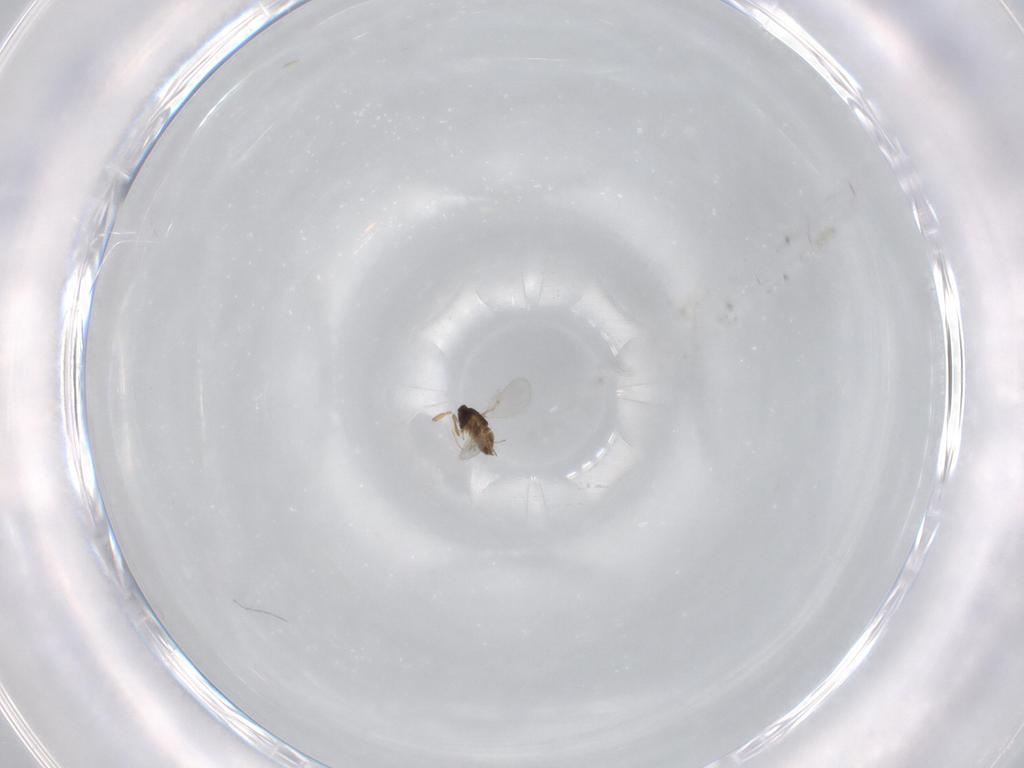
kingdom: Animalia
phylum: Arthropoda
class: Insecta
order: Hymenoptera
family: Encyrtidae
